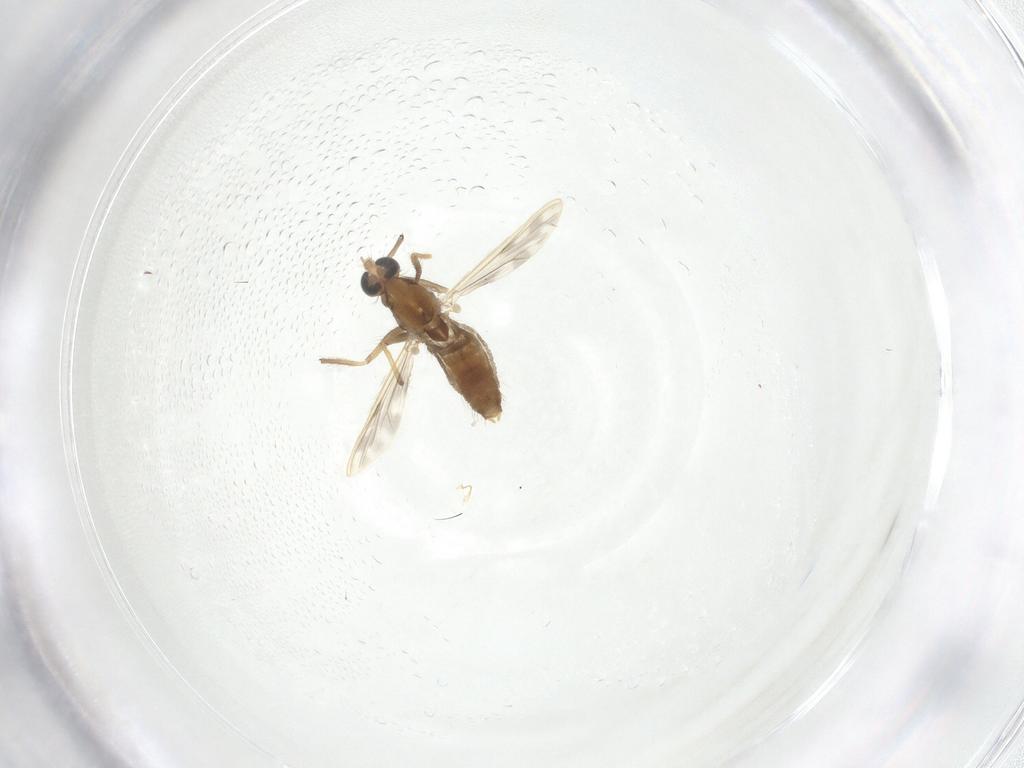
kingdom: Animalia
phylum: Arthropoda
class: Insecta
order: Diptera
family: Chironomidae
